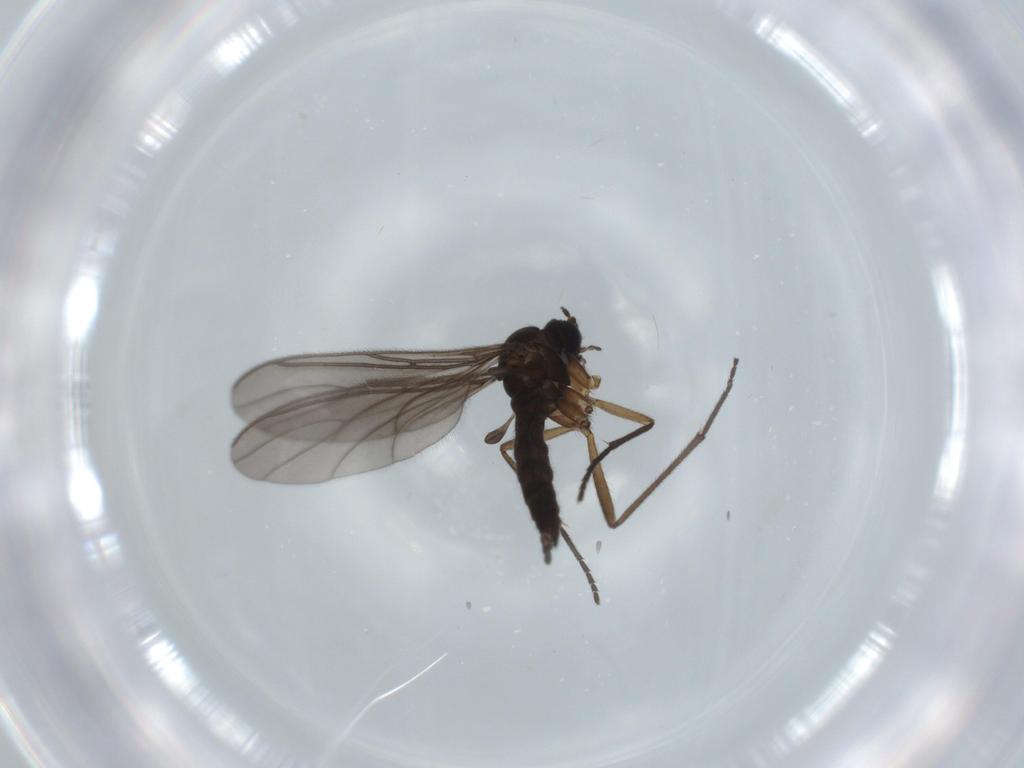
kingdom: Animalia
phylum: Arthropoda
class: Insecta
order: Diptera
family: Sciaridae
